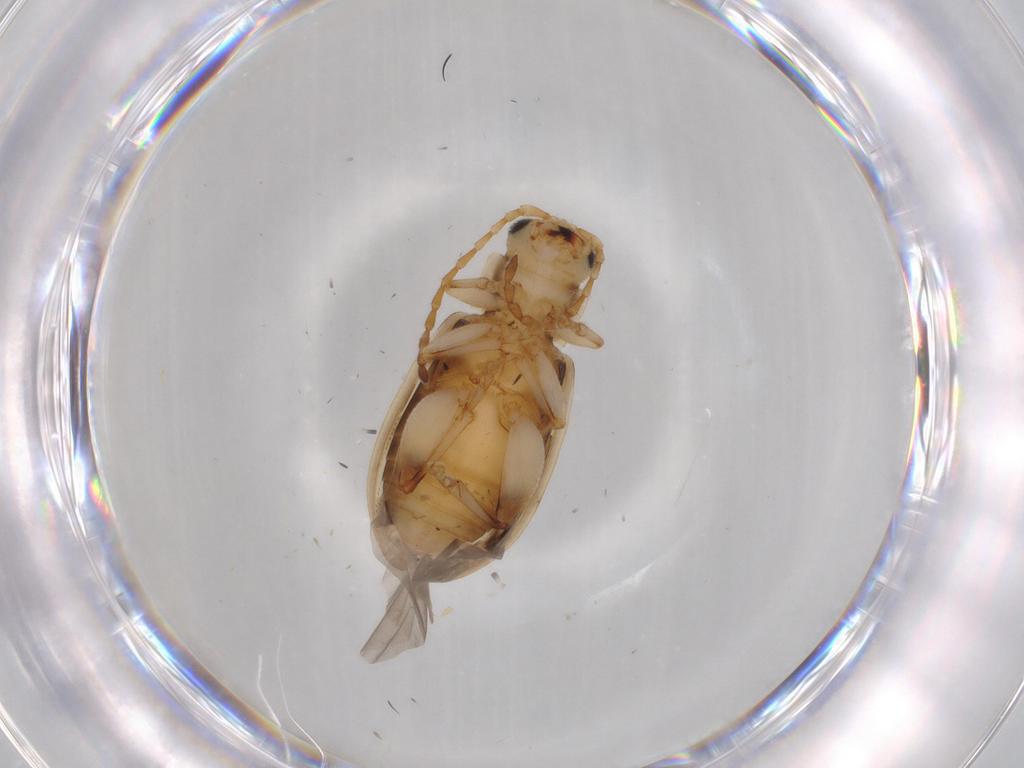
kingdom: Animalia
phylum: Arthropoda
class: Insecta
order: Coleoptera
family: Chrysomelidae
